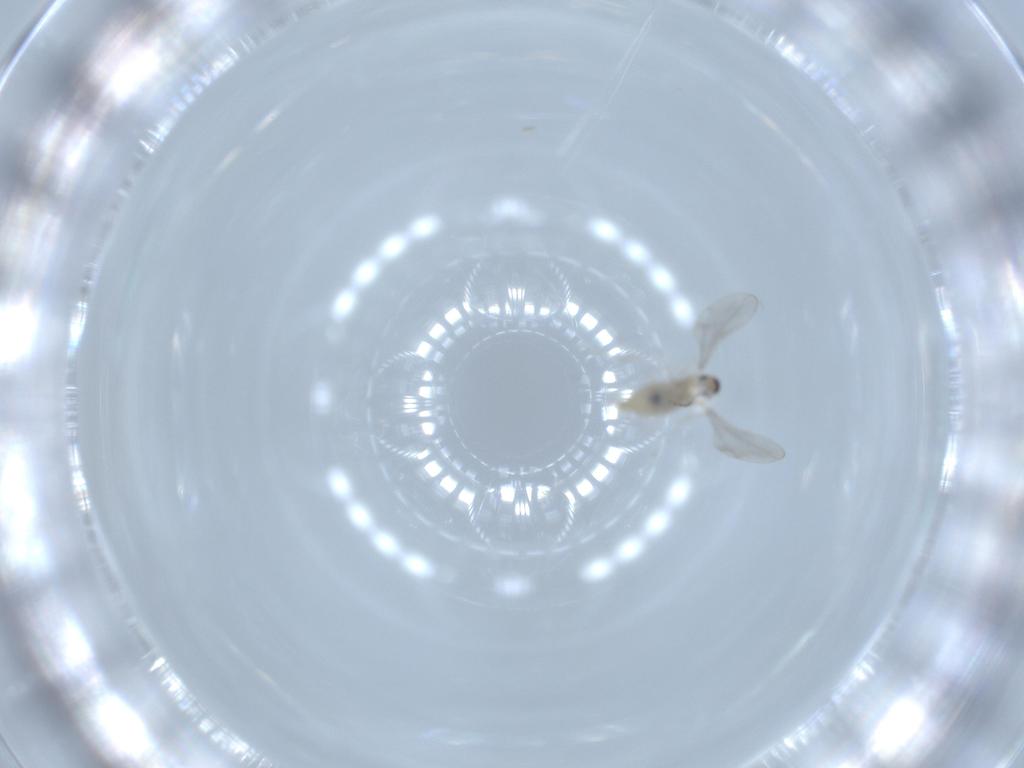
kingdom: Animalia
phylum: Arthropoda
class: Insecta
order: Diptera
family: Cecidomyiidae
